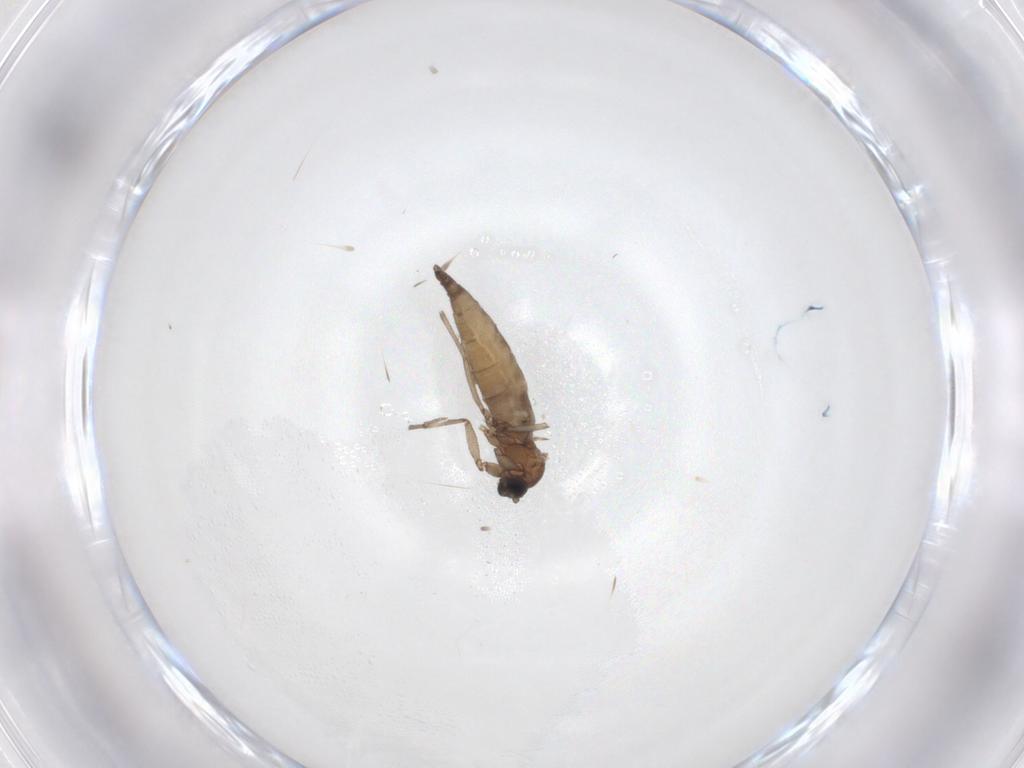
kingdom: Animalia
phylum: Arthropoda
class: Insecta
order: Diptera
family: Sciaridae
